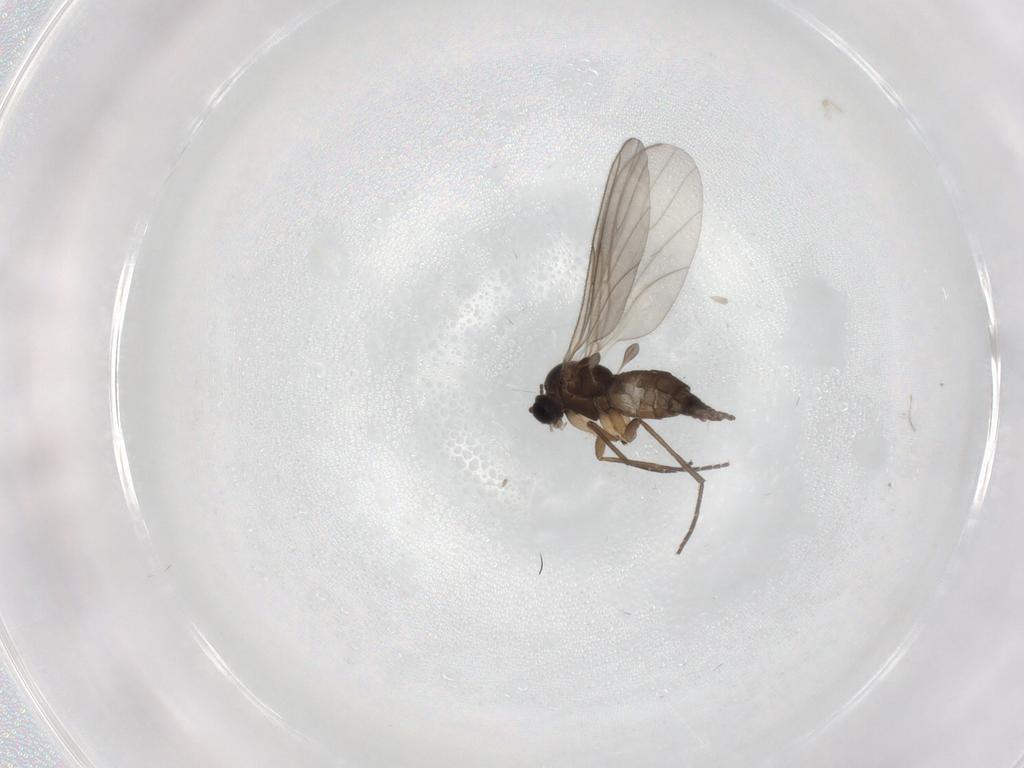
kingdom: Animalia
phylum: Arthropoda
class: Insecta
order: Diptera
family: Sciaridae
